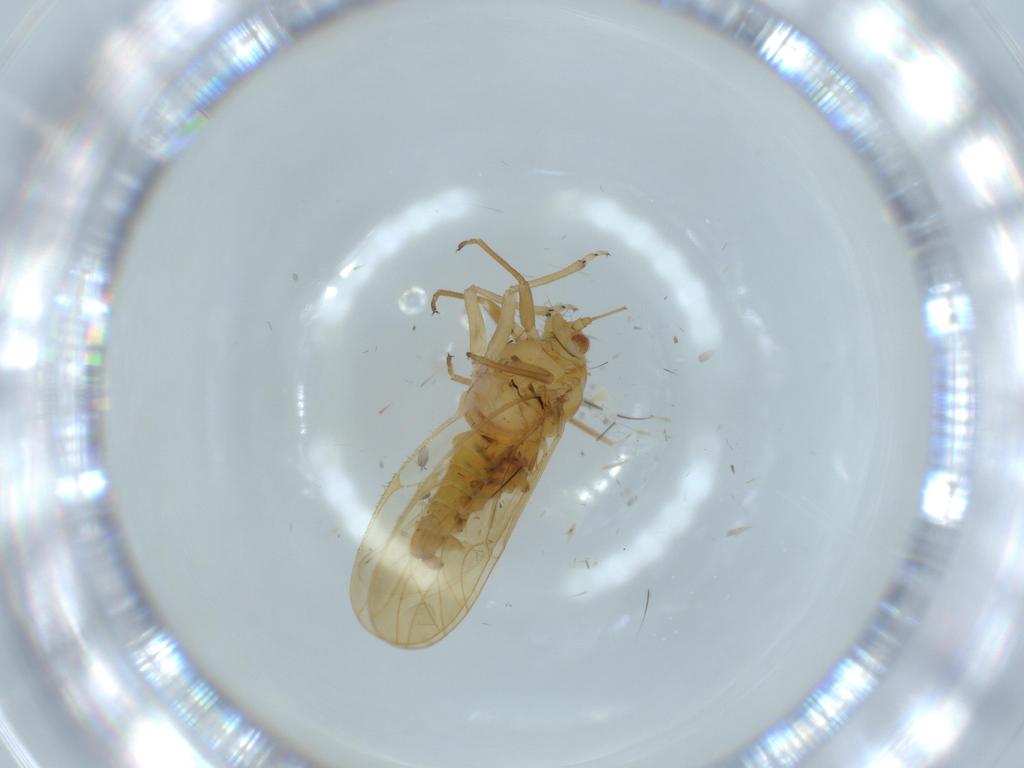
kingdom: Animalia
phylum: Arthropoda
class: Insecta
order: Hemiptera
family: Psyllidae
